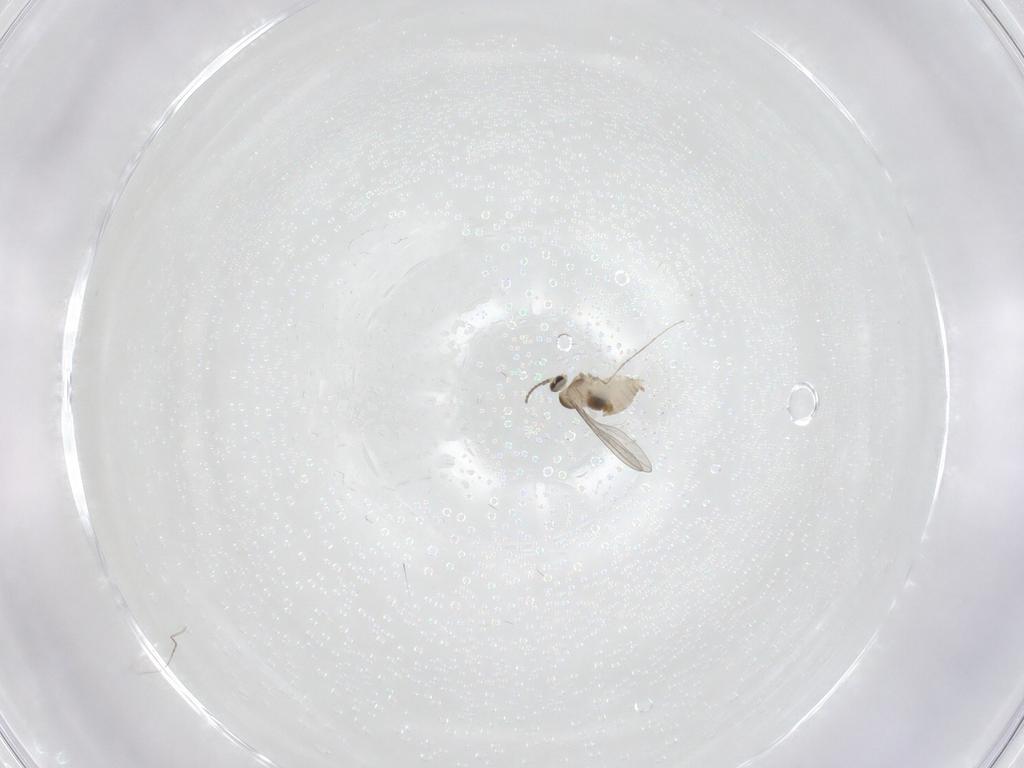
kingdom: Animalia
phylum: Arthropoda
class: Insecta
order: Diptera
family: Cecidomyiidae
